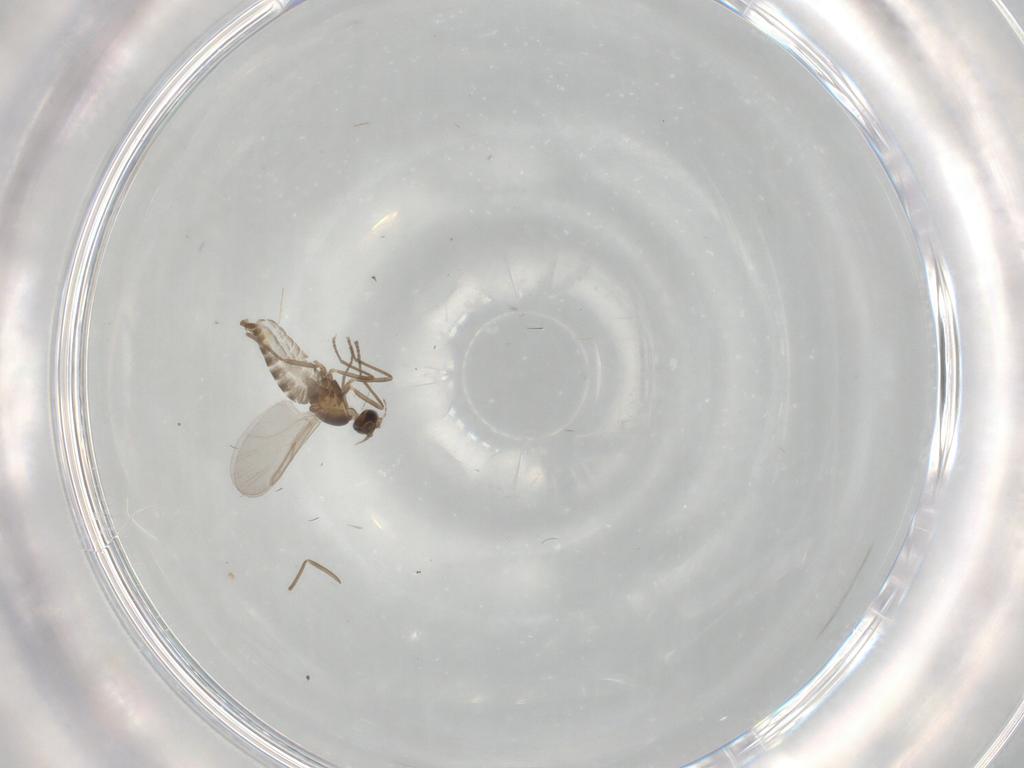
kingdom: Animalia
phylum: Arthropoda
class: Insecta
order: Diptera
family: Cecidomyiidae
